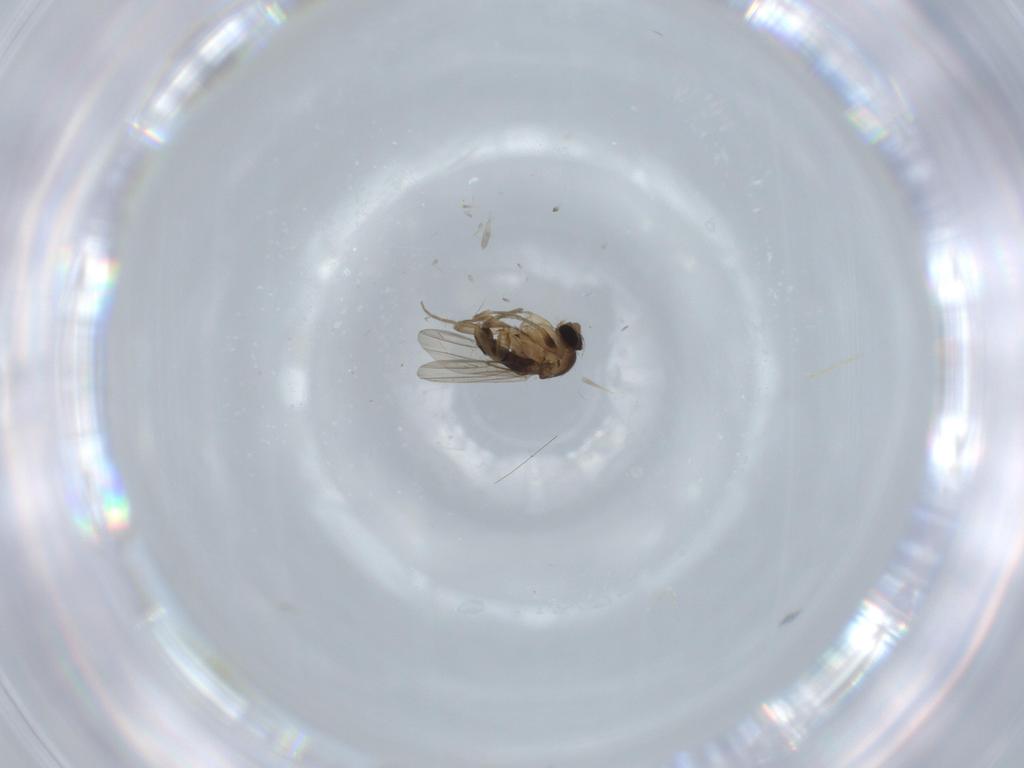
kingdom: Animalia
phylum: Arthropoda
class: Insecta
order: Diptera
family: Phoridae
